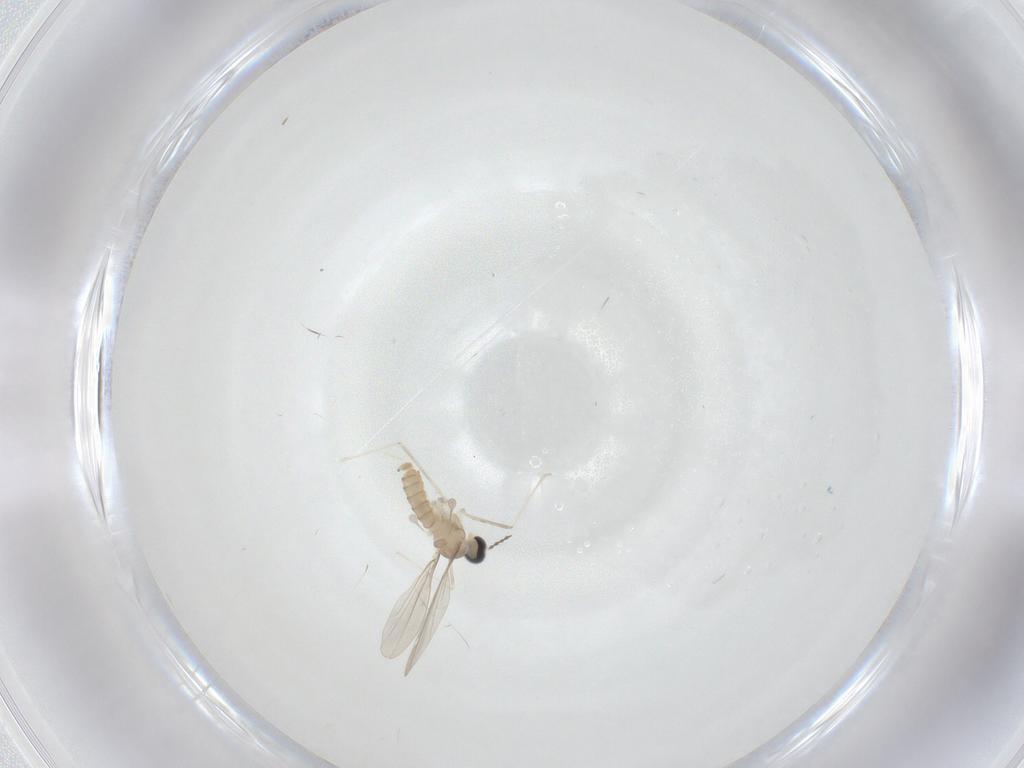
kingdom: Animalia
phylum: Arthropoda
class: Insecta
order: Diptera
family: Cecidomyiidae
